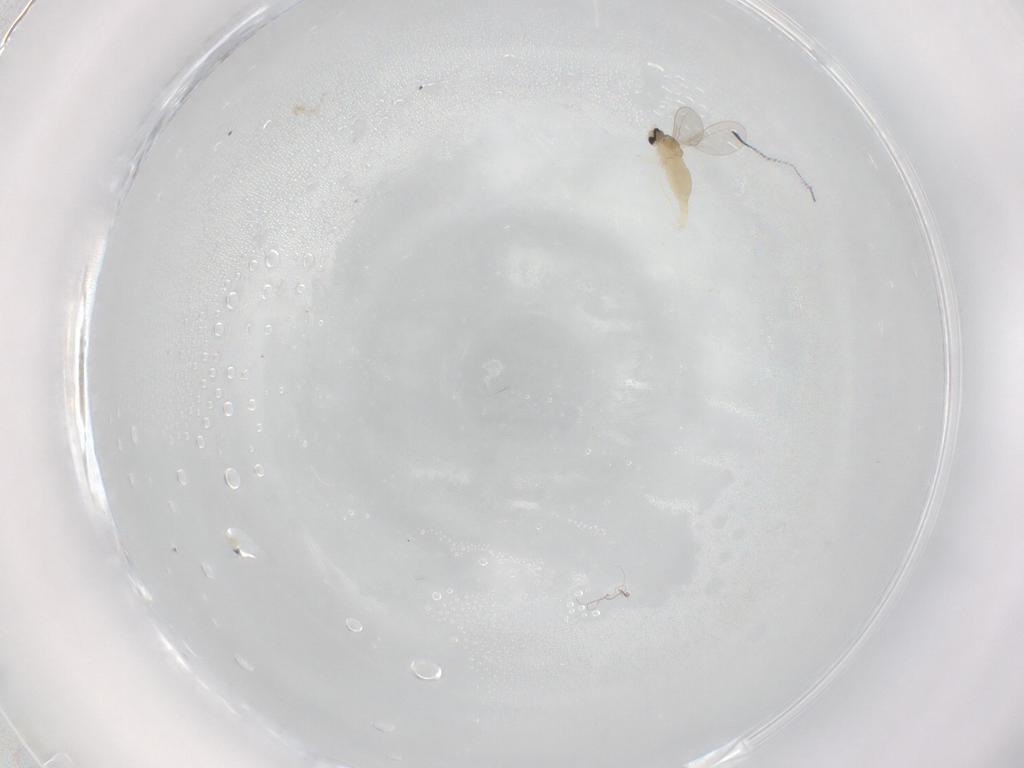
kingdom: Animalia
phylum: Arthropoda
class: Insecta
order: Diptera
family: Cecidomyiidae
